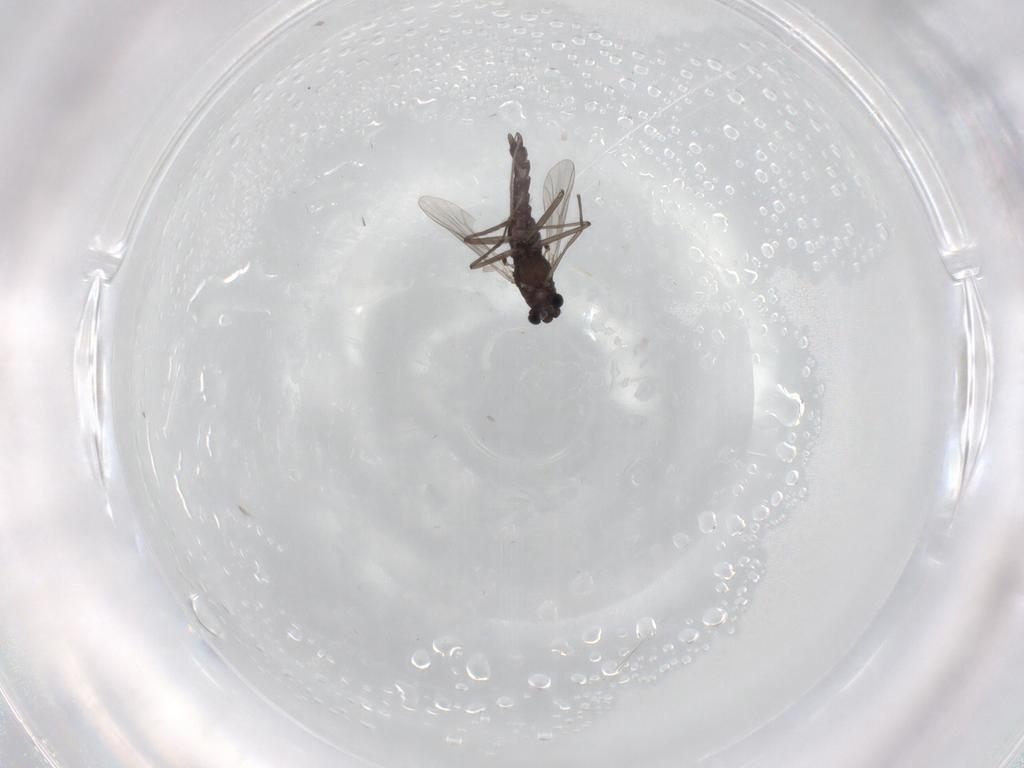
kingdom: Animalia
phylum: Arthropoda
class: Insecta
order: Diptera
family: Chironomidae
